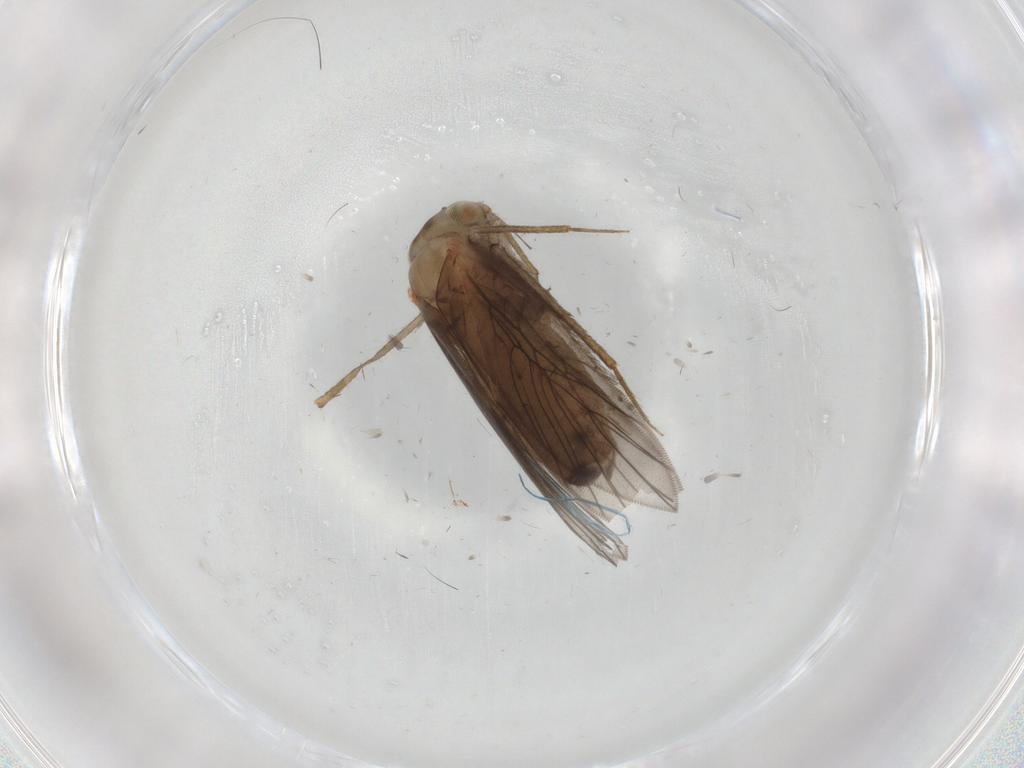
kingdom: Animalia
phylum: Arthropoda
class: Insecta
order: Psocodea
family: Lepidopsocidae
